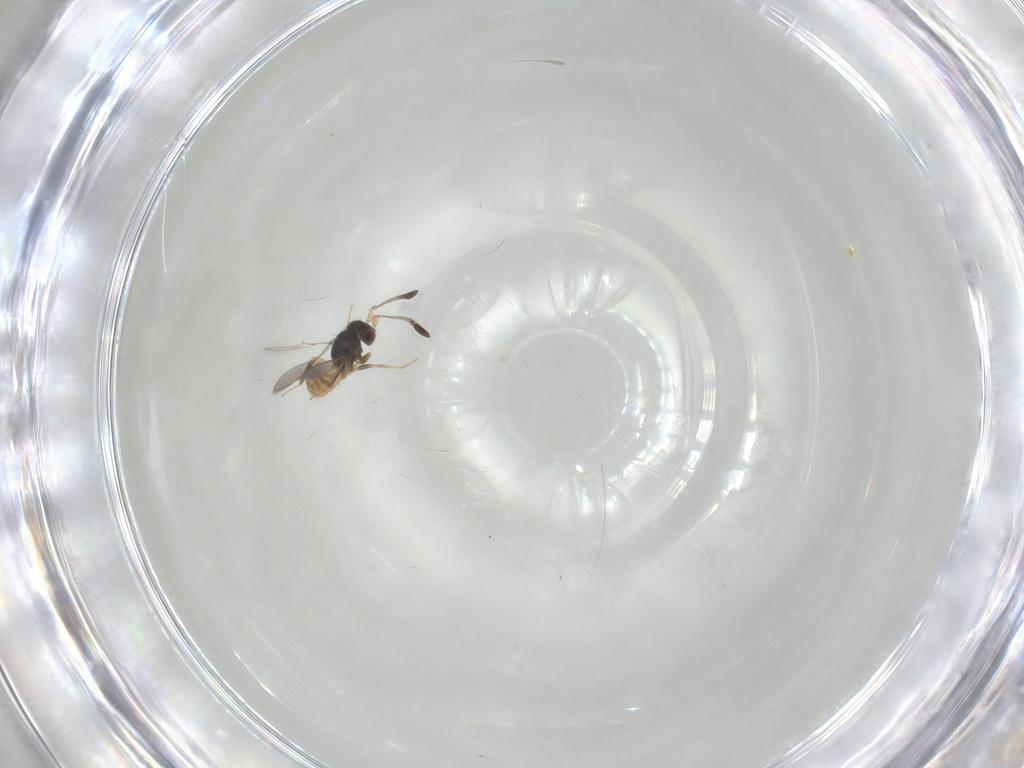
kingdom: Animalia
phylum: Arthropoda
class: Insecta
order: Hymenoptera
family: Mymaridae
